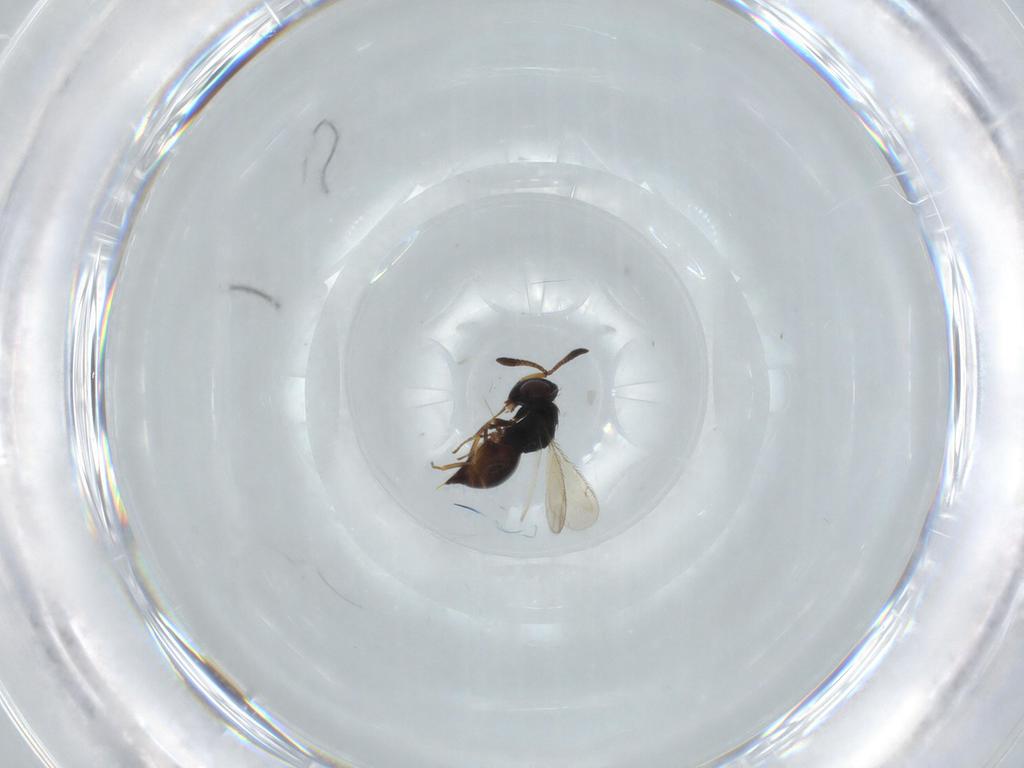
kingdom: Animalia
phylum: Arthropoda
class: Insecta
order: Hymenoptera
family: Diparidae
